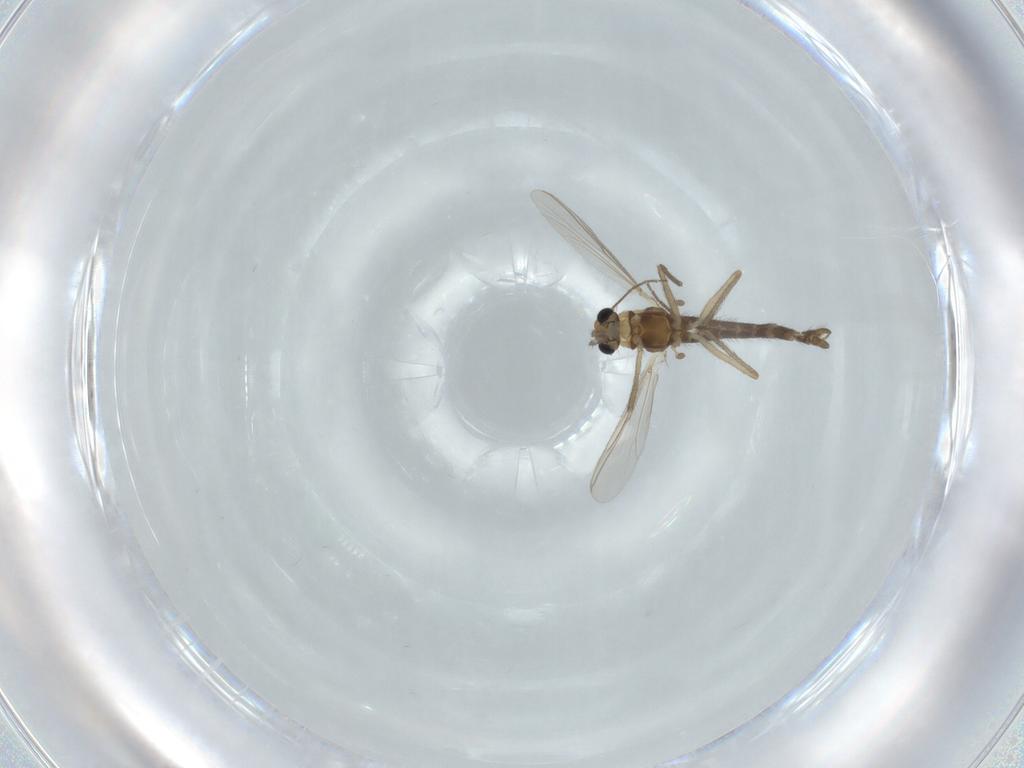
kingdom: Animalia
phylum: Arthropoda
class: Insecta
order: Diptera
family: Chironomidae
